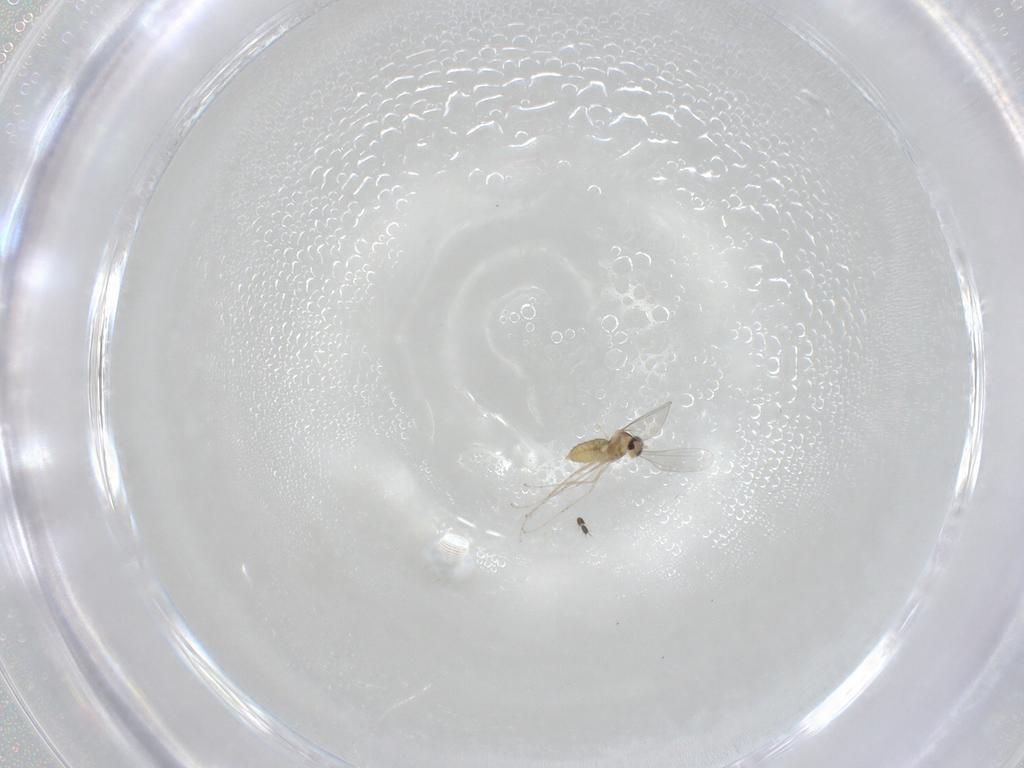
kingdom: Animalia
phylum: Arthropoda
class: Insecta
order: Diptera
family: Cecidomyiidae
